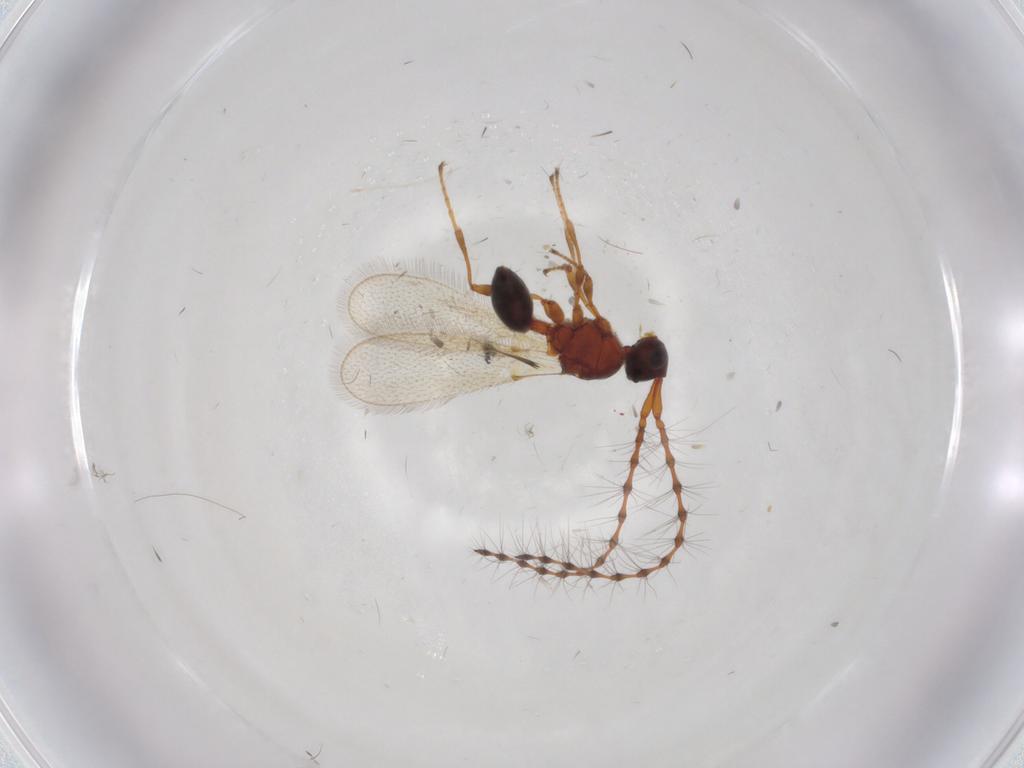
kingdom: Animalia
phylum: Arthropoda
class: Insecta
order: Hymenoptera
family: Diapriidae
